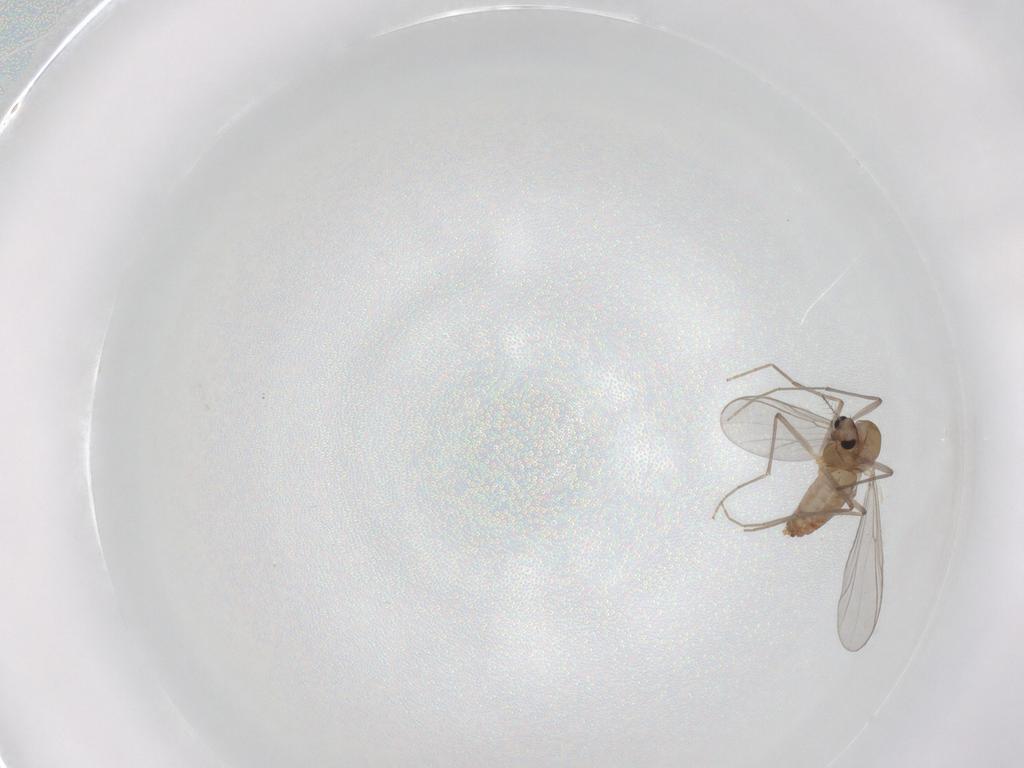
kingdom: Animalia
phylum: Arthropoda
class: Insecta
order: Diptera
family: Chironomidae
